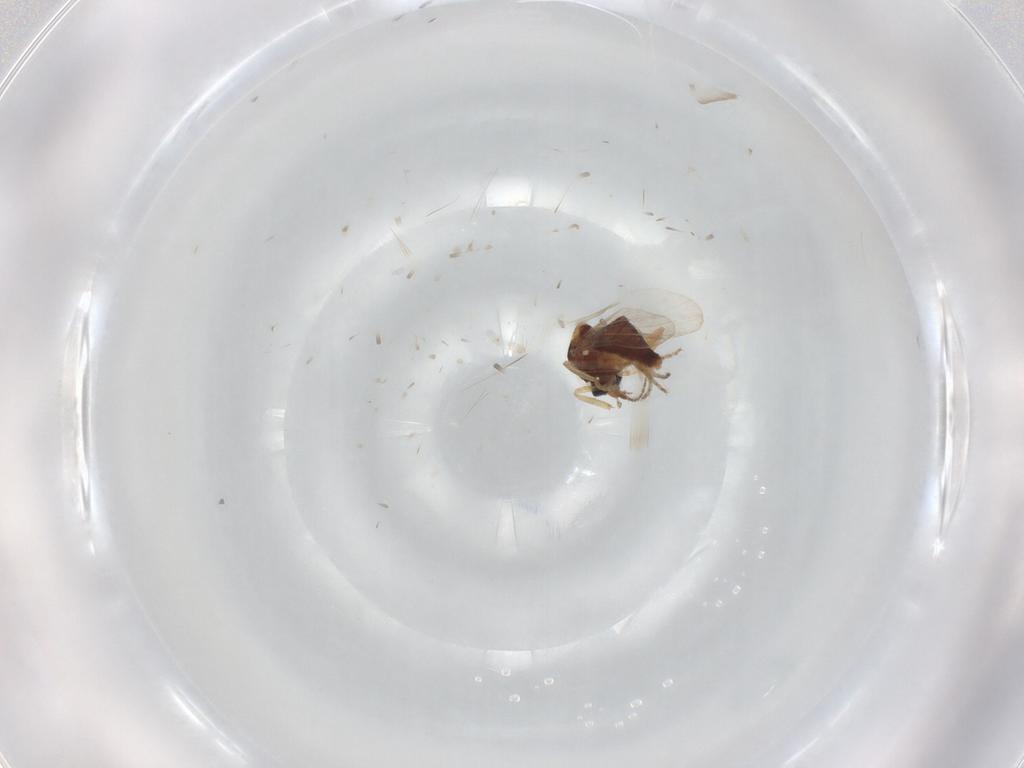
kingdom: Animalia
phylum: Arthropoda
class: Insecta
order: Diptera
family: Ceratopogonidae
